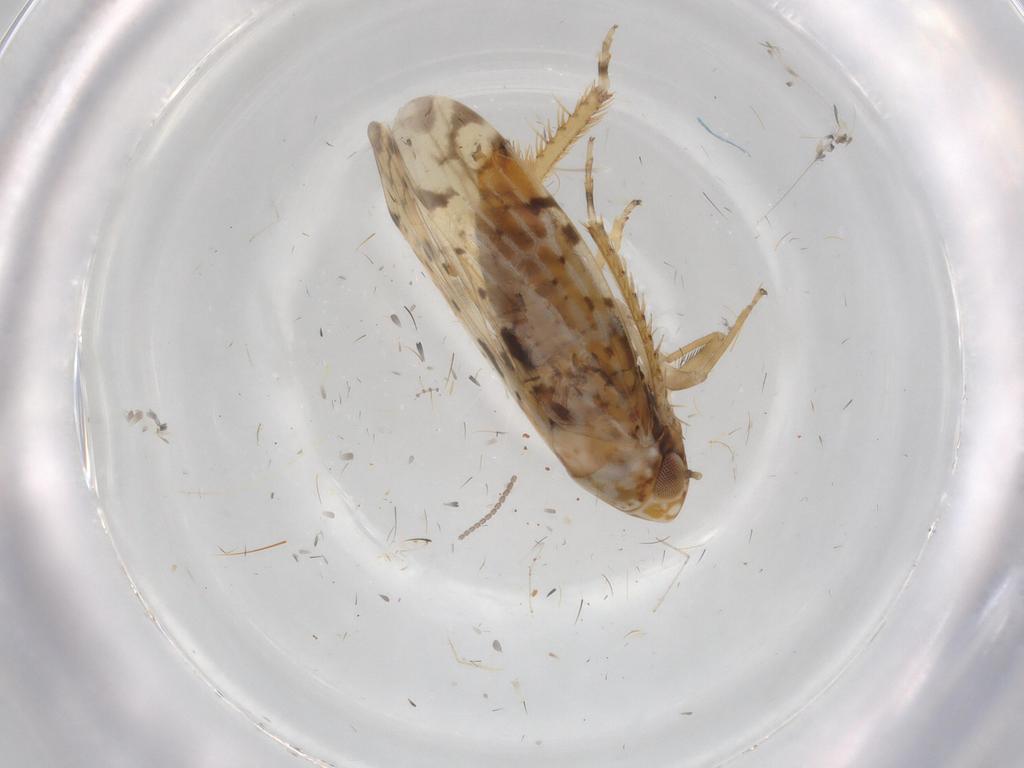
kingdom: Animalia
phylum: Arthropoda
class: Insecta
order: Hemiptera
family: Cicadellidae
